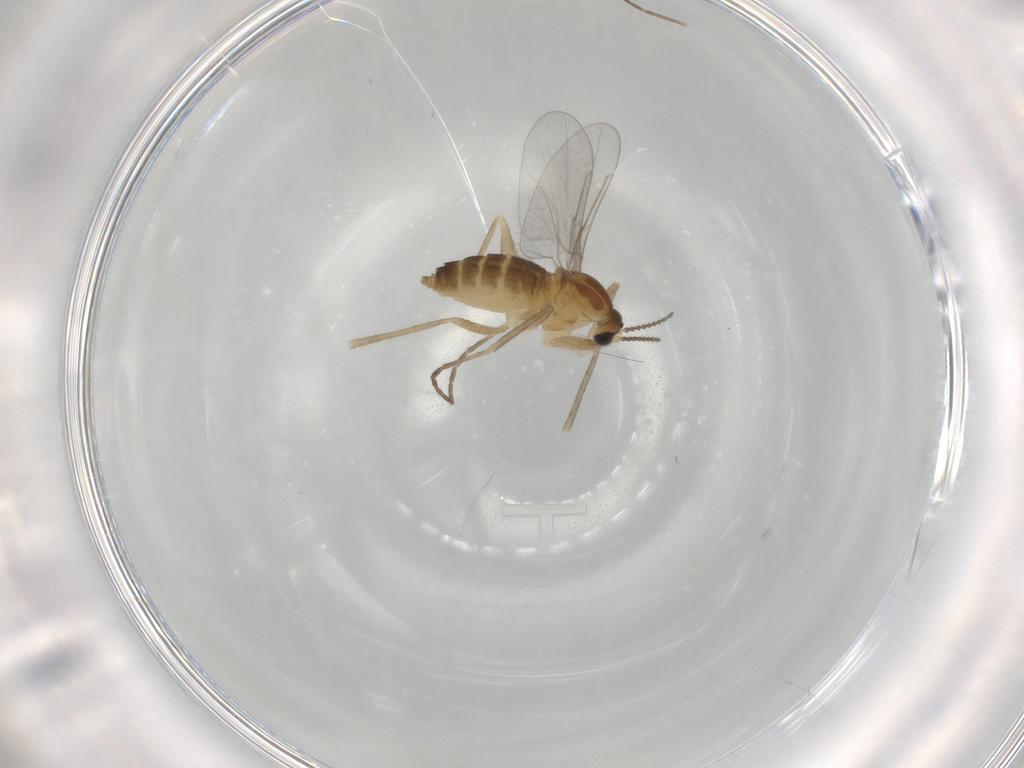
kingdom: Animalia
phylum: Arthropoda
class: Insecta
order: Diptera
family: Cecidomyiidae
